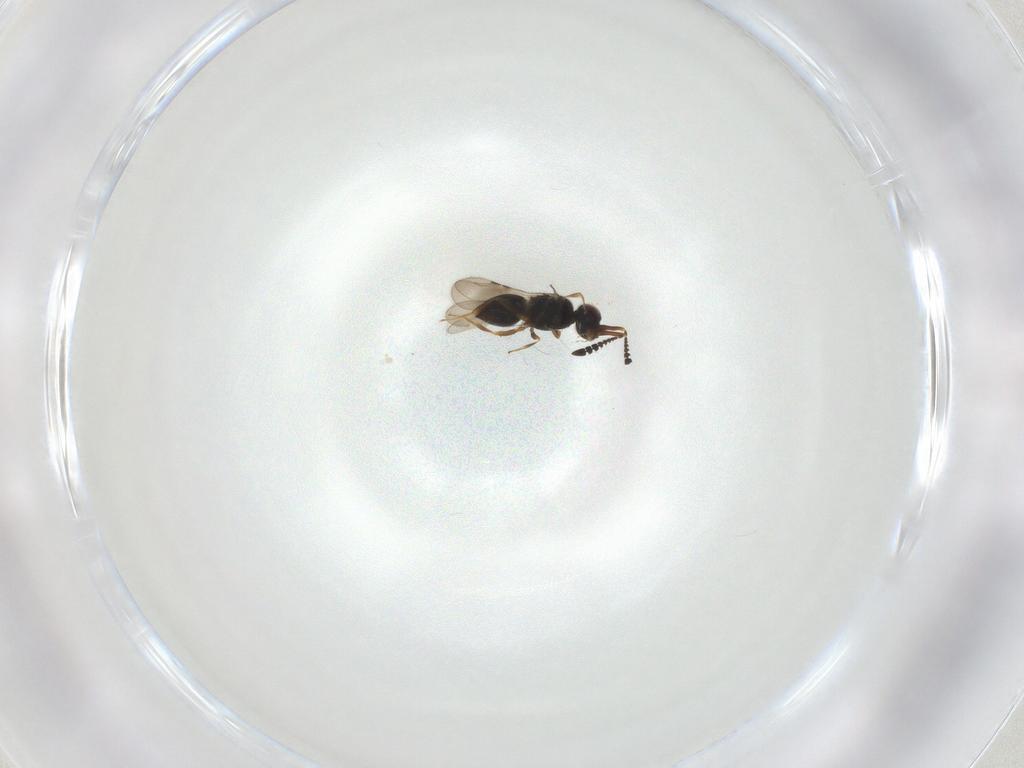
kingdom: Animalia
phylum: Arthropoda
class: Insecta
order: Hymenoptera
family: Ceraphronidae
